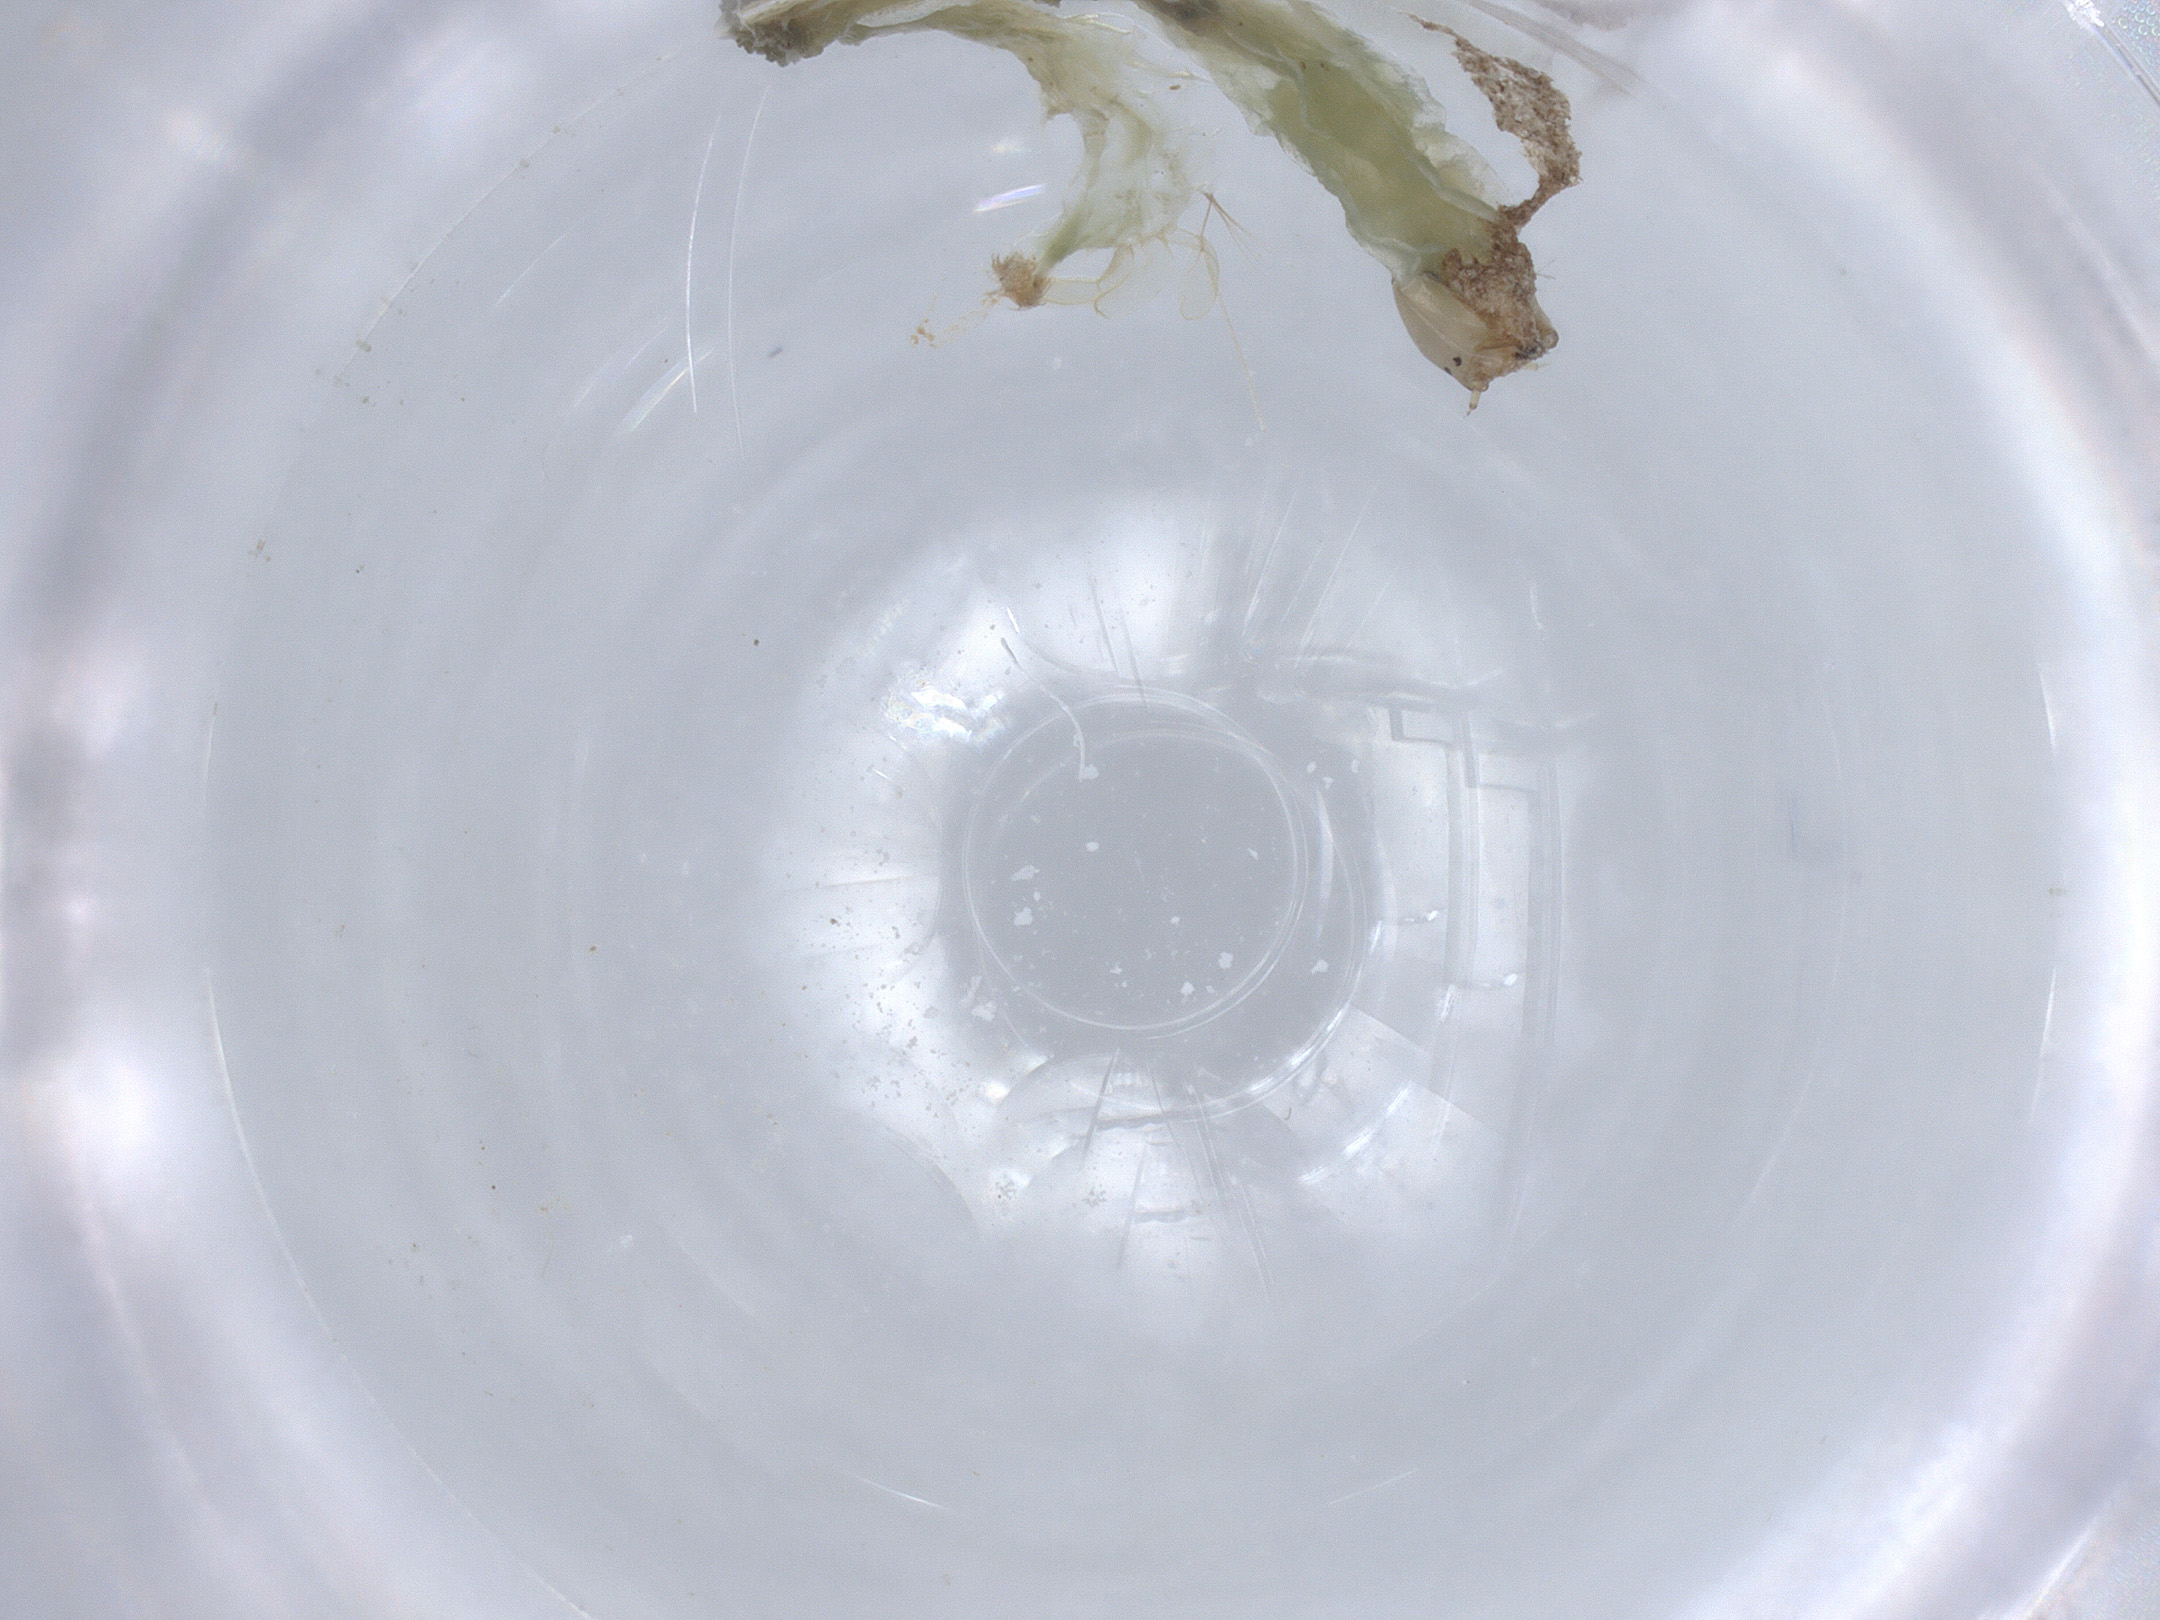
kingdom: Animalia
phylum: Arthropoda
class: Insecta
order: Diptera
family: Chironomidae
